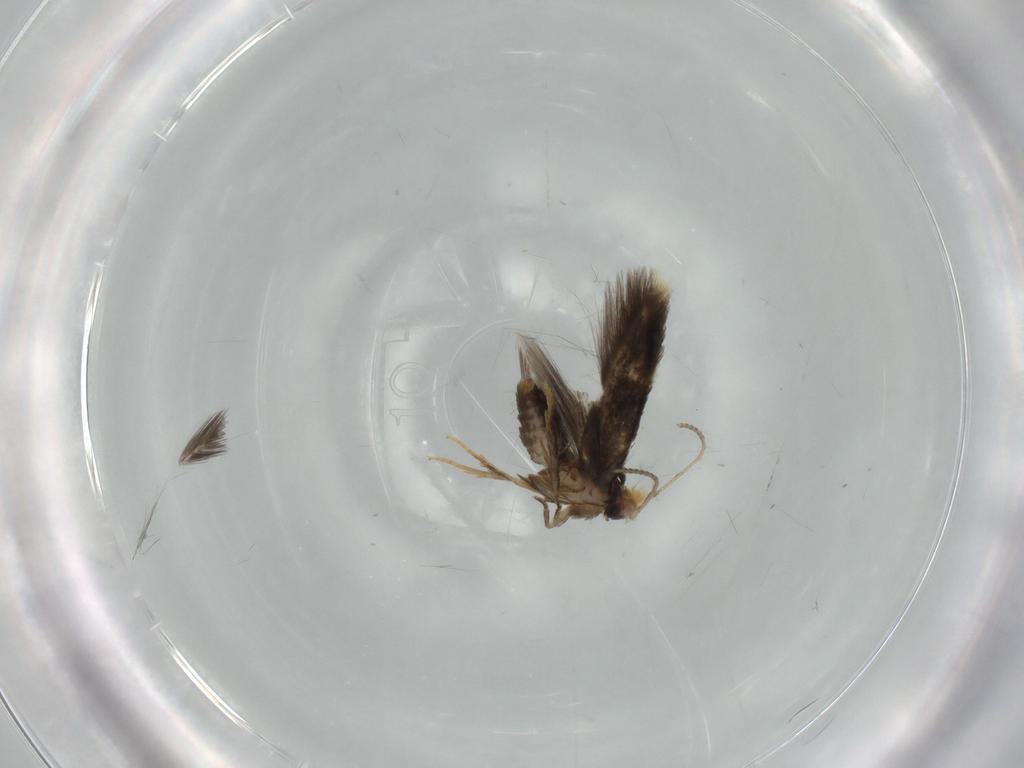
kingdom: Animalia
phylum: Arthropoda
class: Insecta
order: Lepidoptera
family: Nepticulidae
